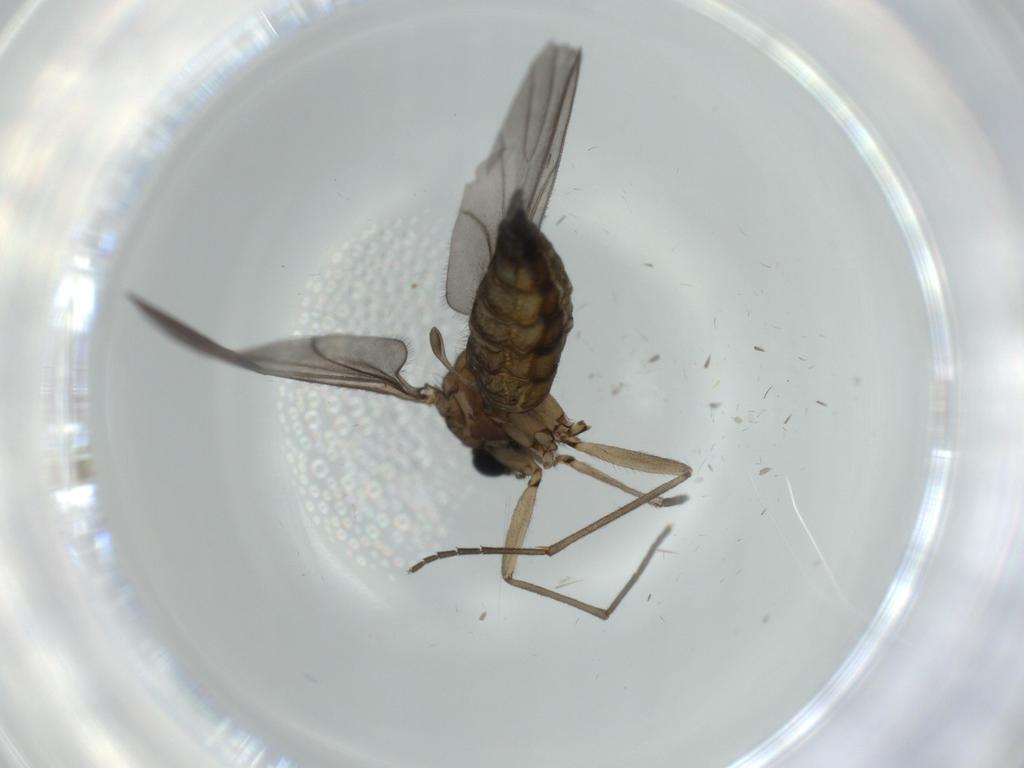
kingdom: Animalia
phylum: Arthropoda
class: Insecta
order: Diptera
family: Sciaridae
